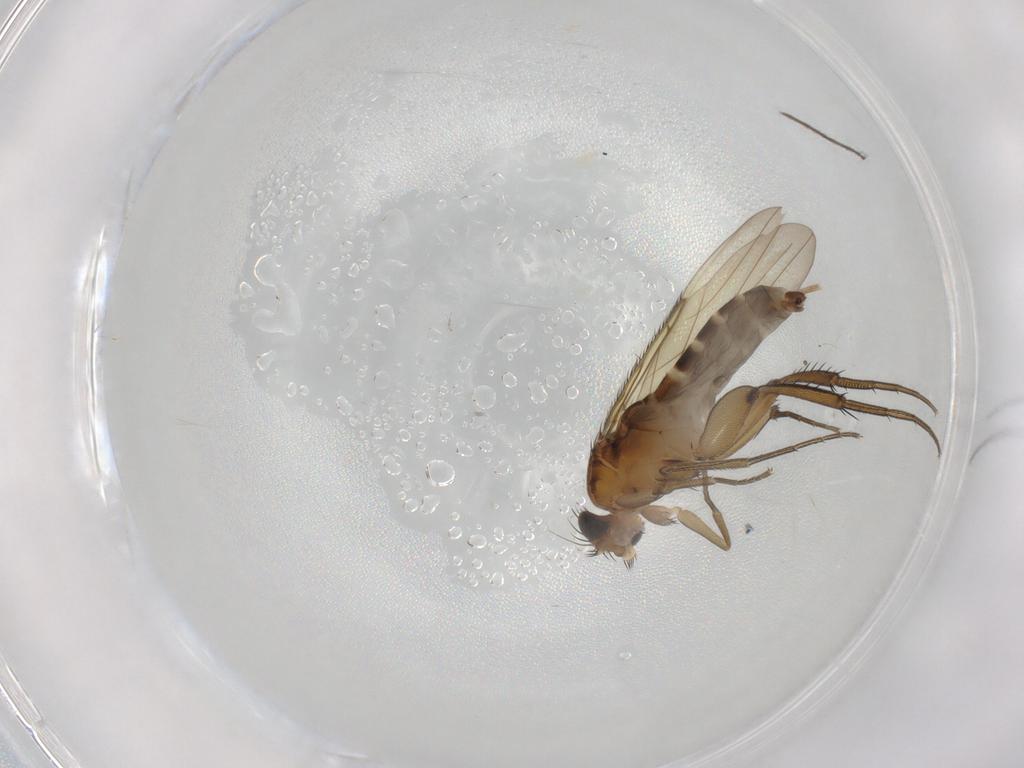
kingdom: Animalia
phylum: Arthropoda
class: Insecta
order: Diptera
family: Phoridae
